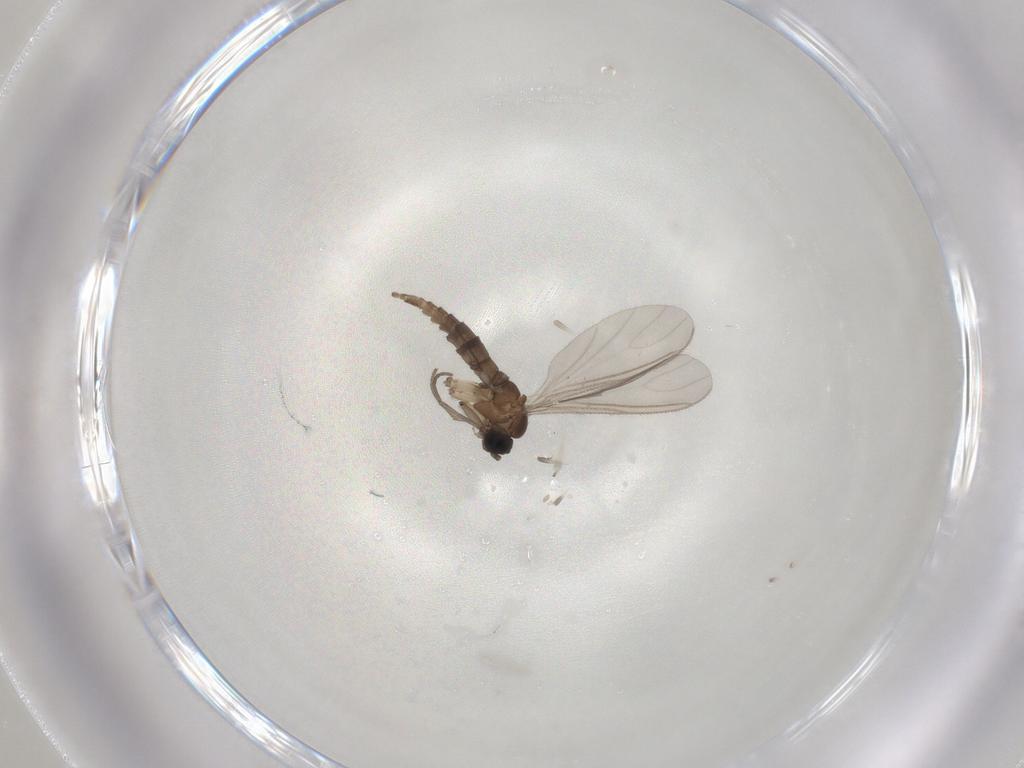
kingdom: Animalia
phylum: Arthropoda
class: Insecta
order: Diptera
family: Sciaridae
